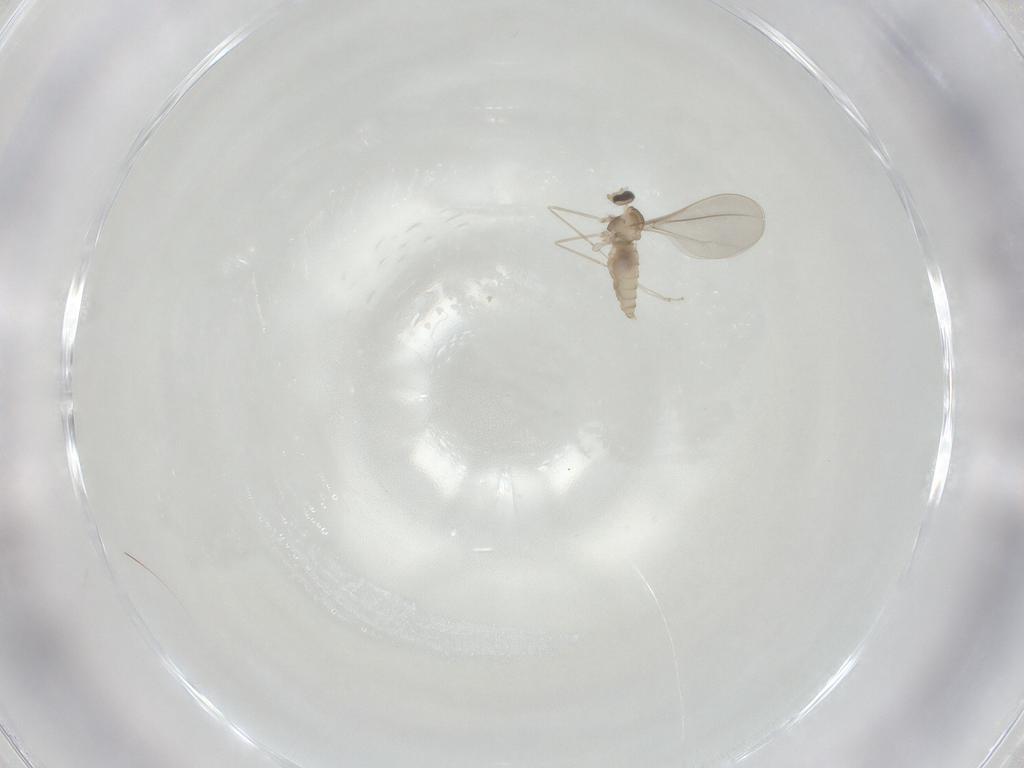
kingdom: Animalia
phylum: Arthropoda
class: Insecta
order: Diptera
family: Cecidomyiidae
